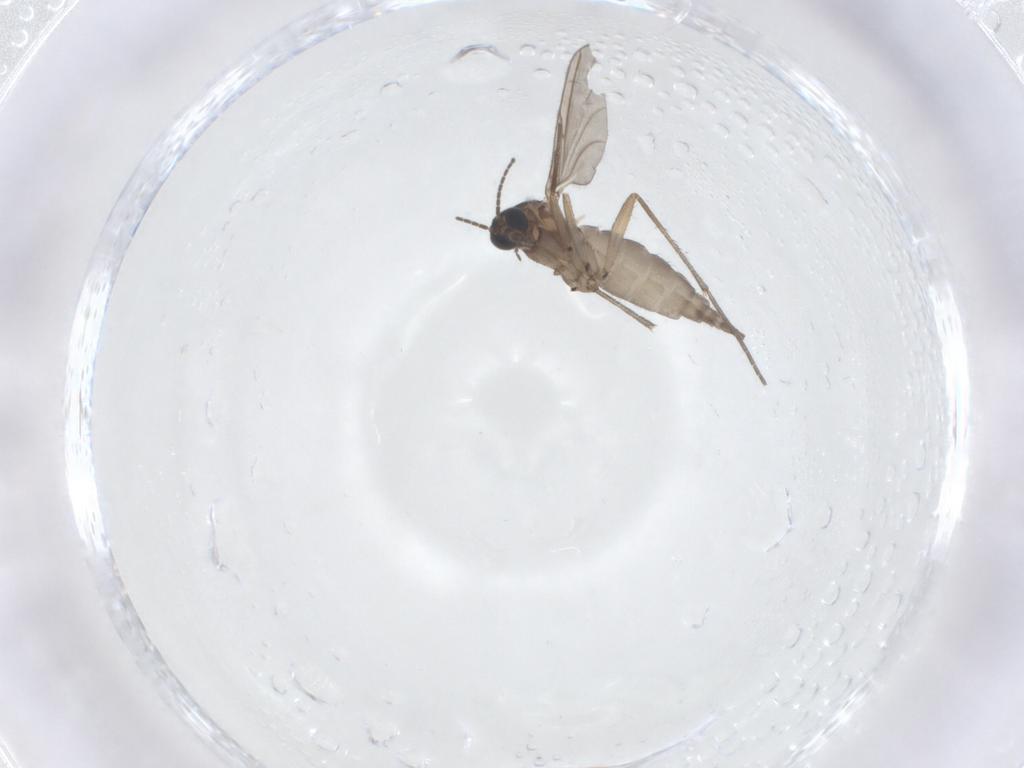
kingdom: Animalia
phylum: Arthropoda
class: Insecta
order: Diptera
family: Sciaridae
